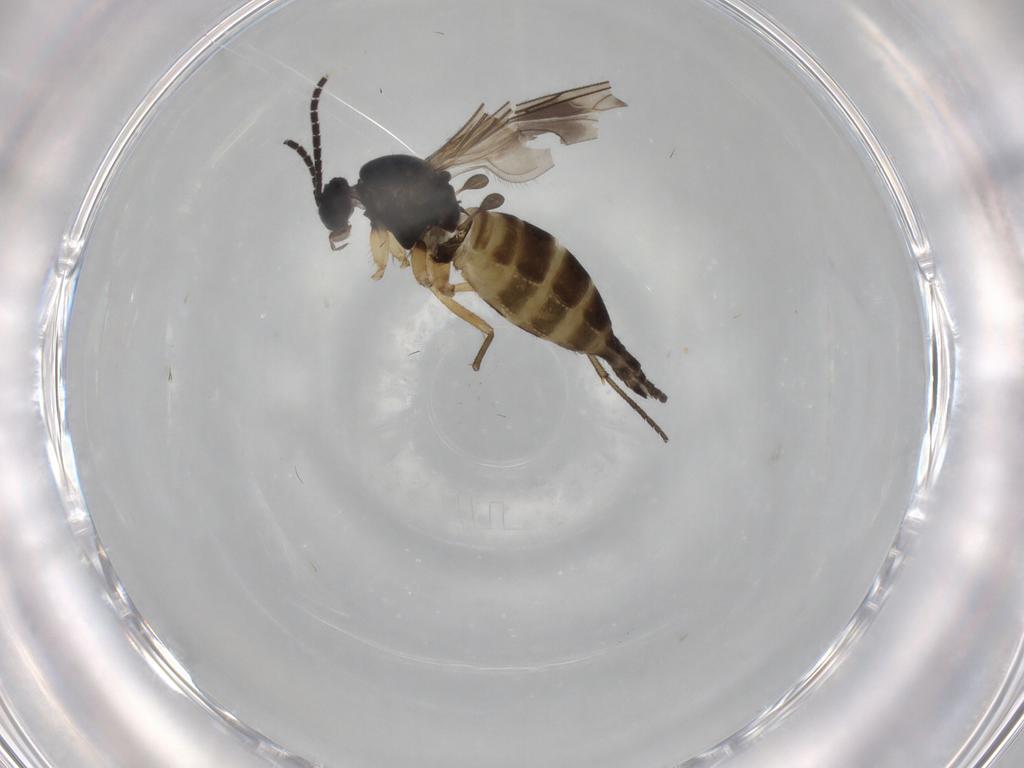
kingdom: Animalia
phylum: Arthropoda
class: Insecta
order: Diptera
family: Sciaridae
